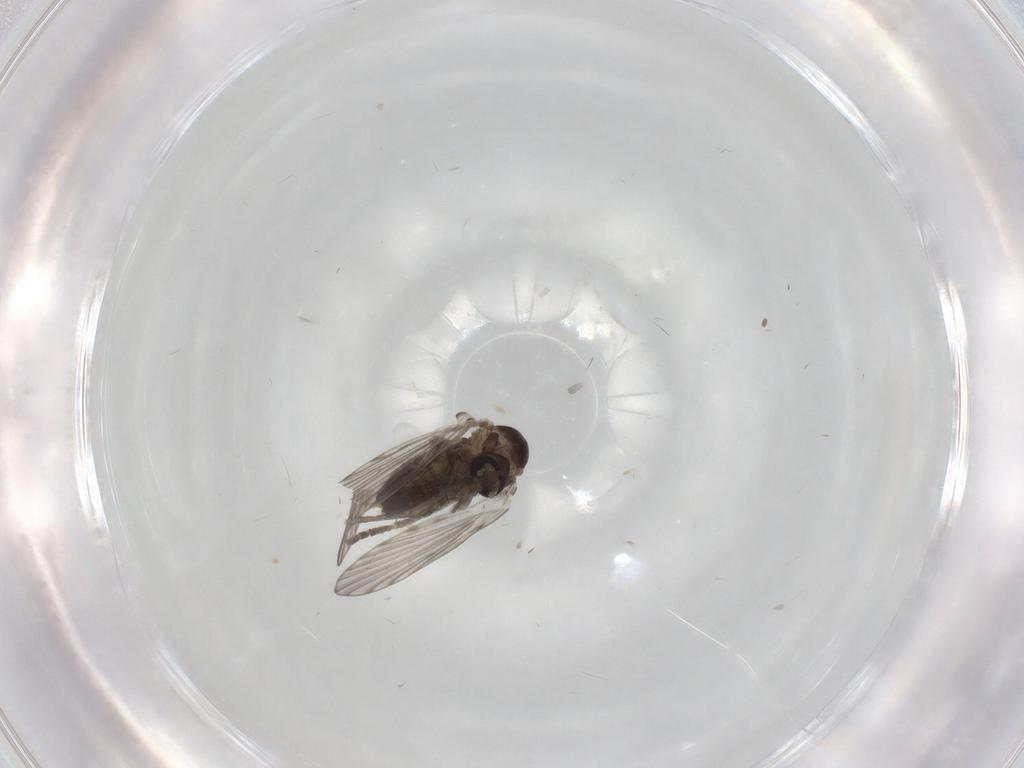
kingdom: Animalia
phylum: Arthropoda
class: Insecta
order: Diptera
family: Psychodidae
